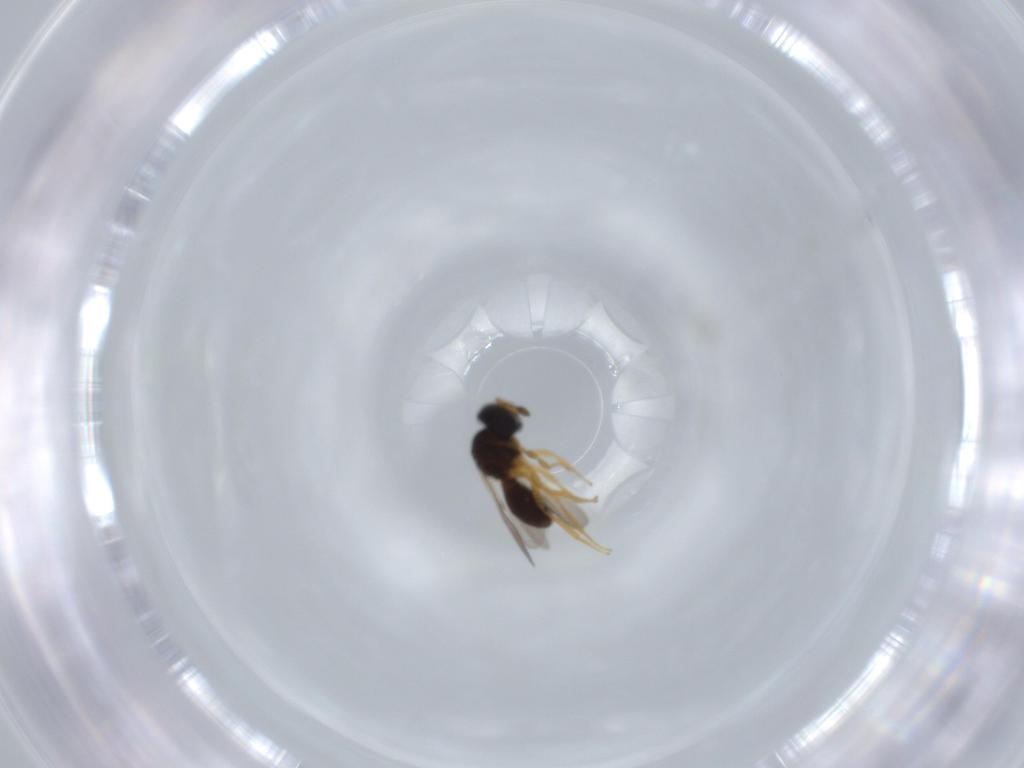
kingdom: Animalia
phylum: Arthropoda
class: Insecta
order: Hymenoptera
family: Scelionidae
